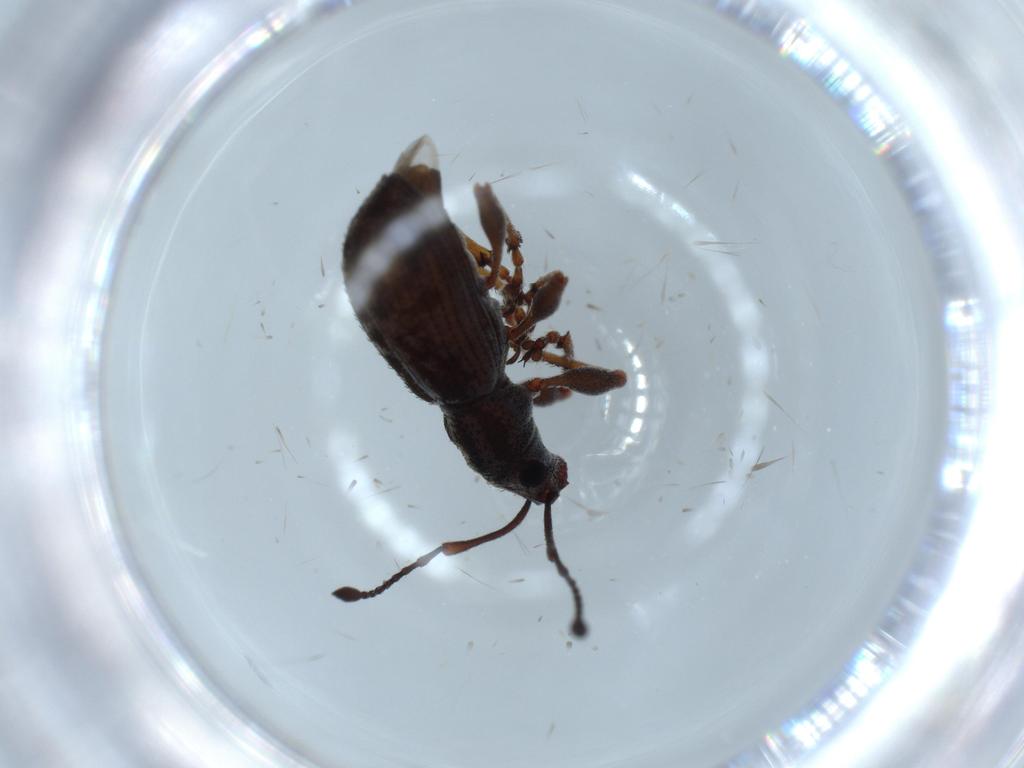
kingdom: Animalia
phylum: Arthropoda
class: Insecta
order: Coleoptera
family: Curculionidae
